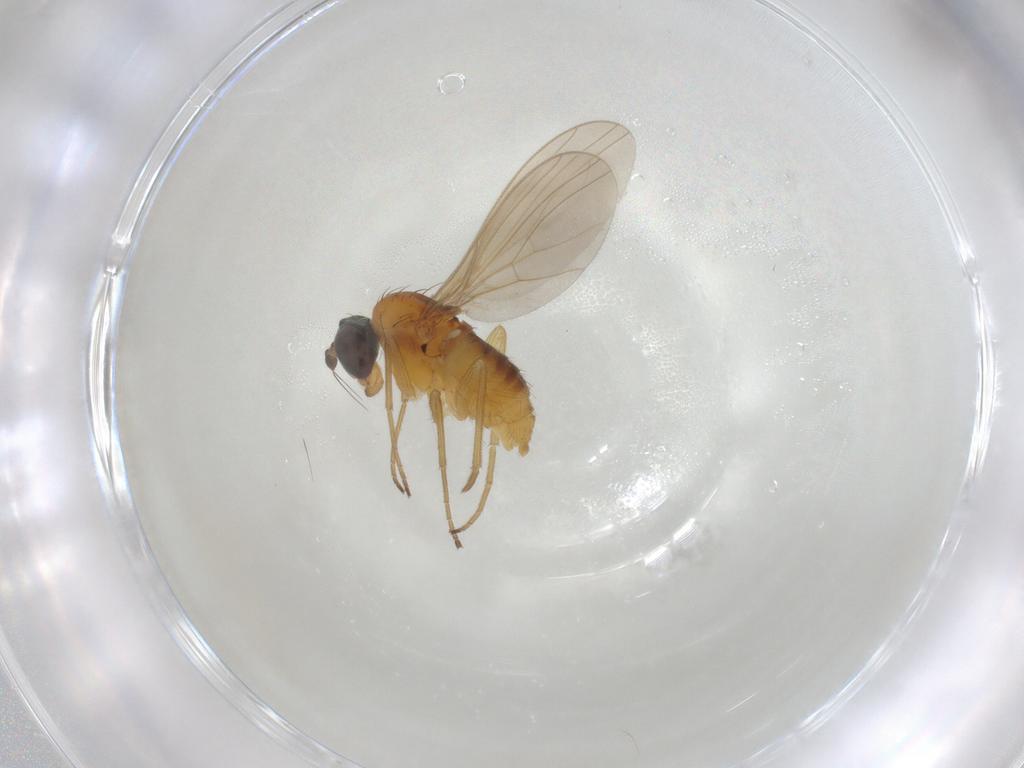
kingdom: Animalia
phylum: Arthropoda
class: Insecta
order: Diptera
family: Dolichopodidae
